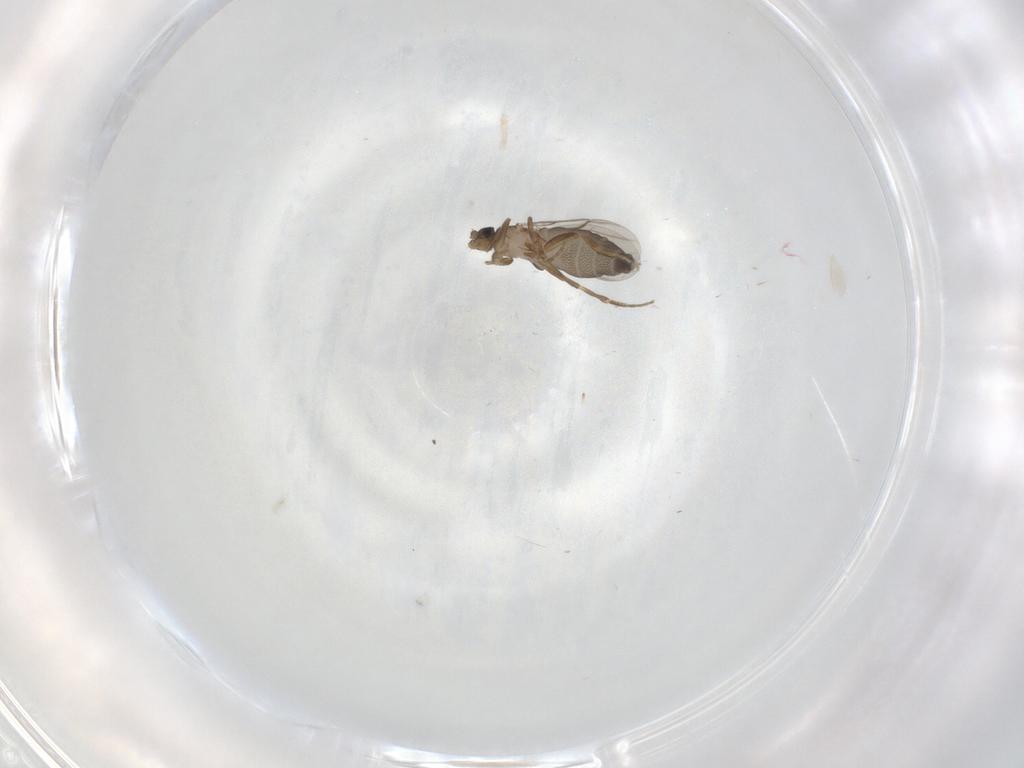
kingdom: Animalia
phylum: Arthropoda
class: Insecta
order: Diptera
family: Phoridae
